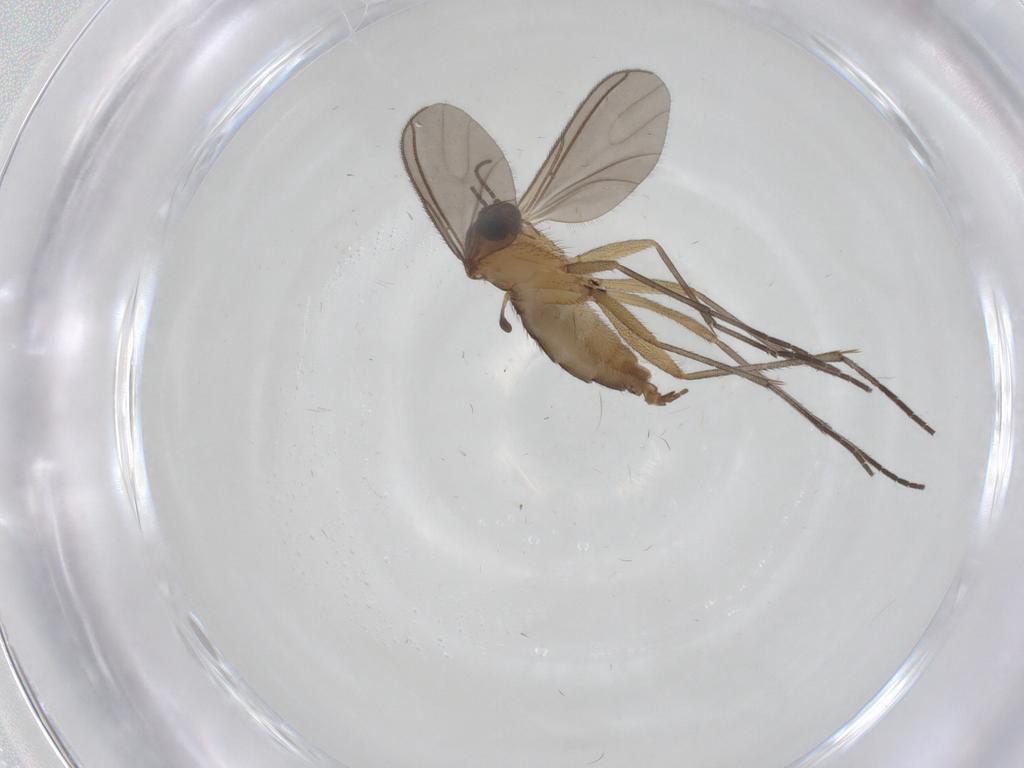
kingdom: Animalia
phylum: Arthropoda
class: Insecta
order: Diptera
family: Sciaridae
